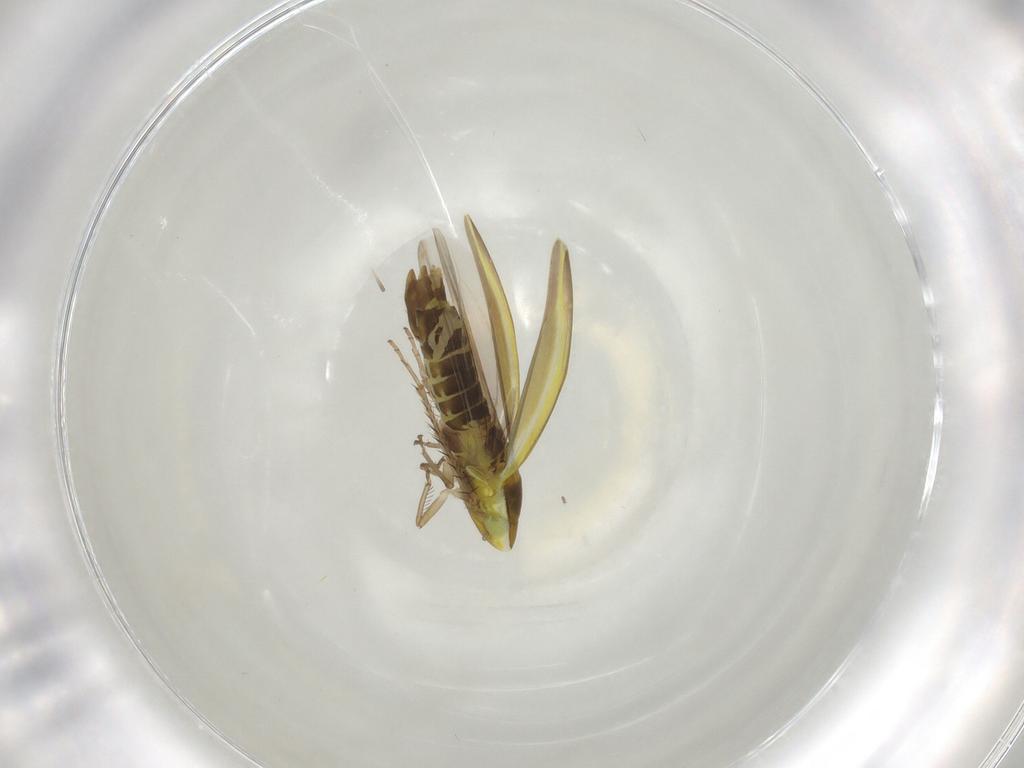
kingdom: Animalia
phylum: Arthropoda
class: Insecta
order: Hemiptera
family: Cicadellidae
